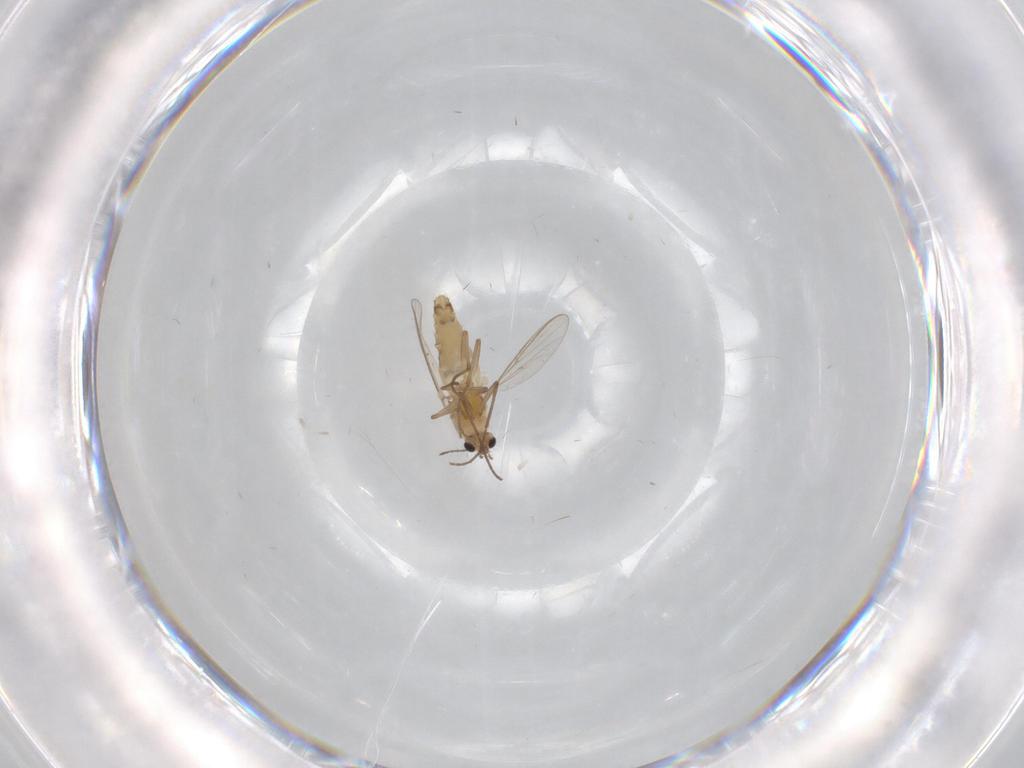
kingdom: Animalia
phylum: Arthropoda
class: Insecta
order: Diptera
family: Chironomidae
